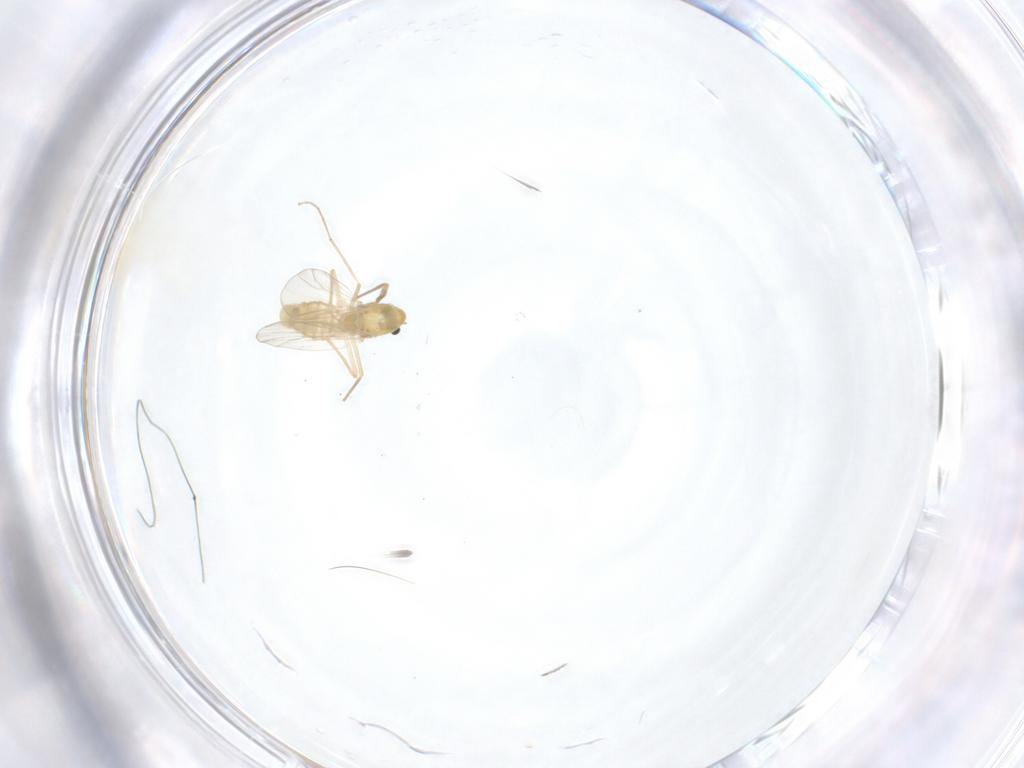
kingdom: Animalia
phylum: Arthropoda
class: Insecta
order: Diptera
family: Chironomidae
